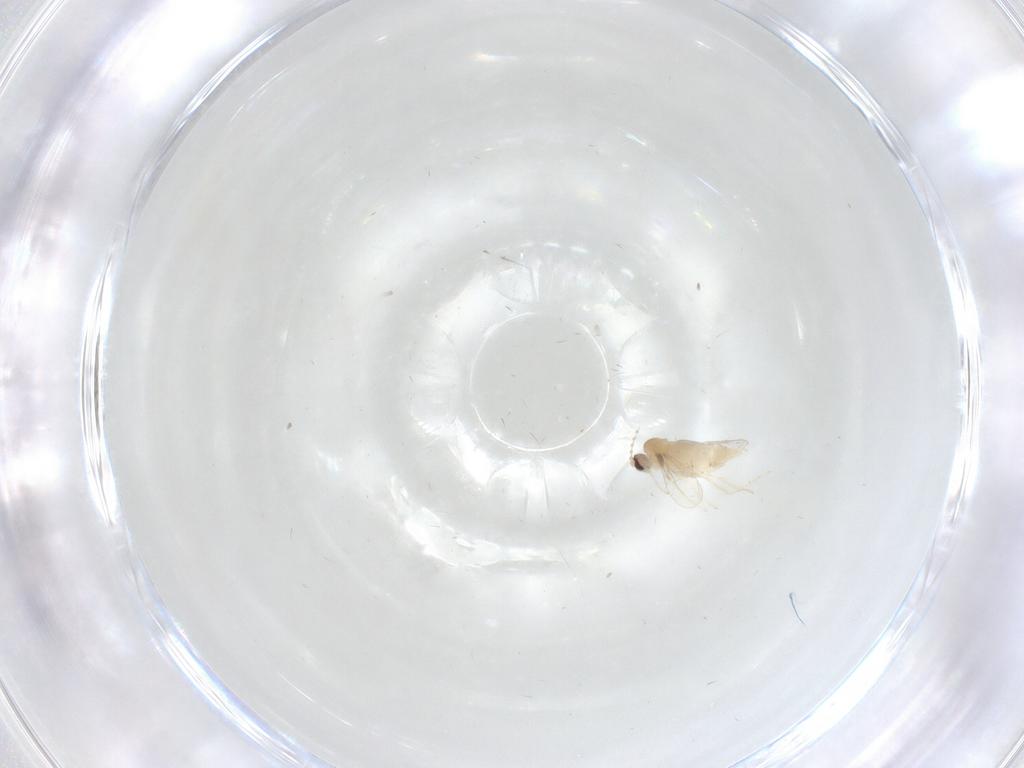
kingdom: Animalia
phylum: Arthropoda
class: Insecta
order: Diptera
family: Cecidomyiidae
